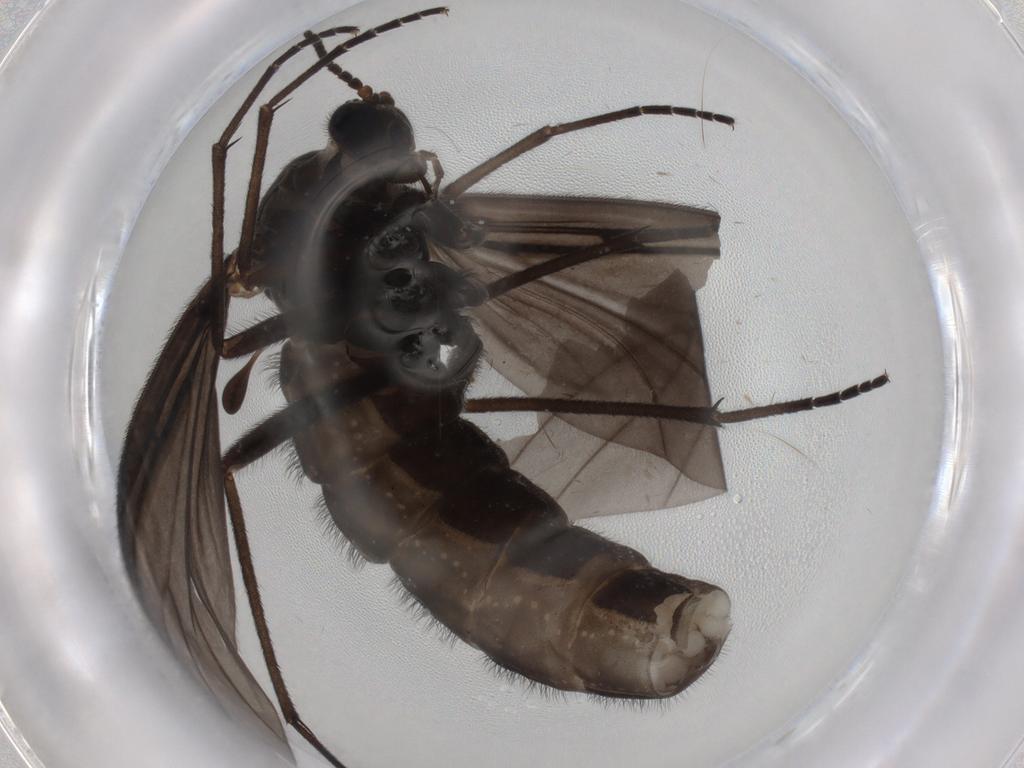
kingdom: Animalia
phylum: Arthropoda
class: Insecta
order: Diptera
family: Sciaridae
